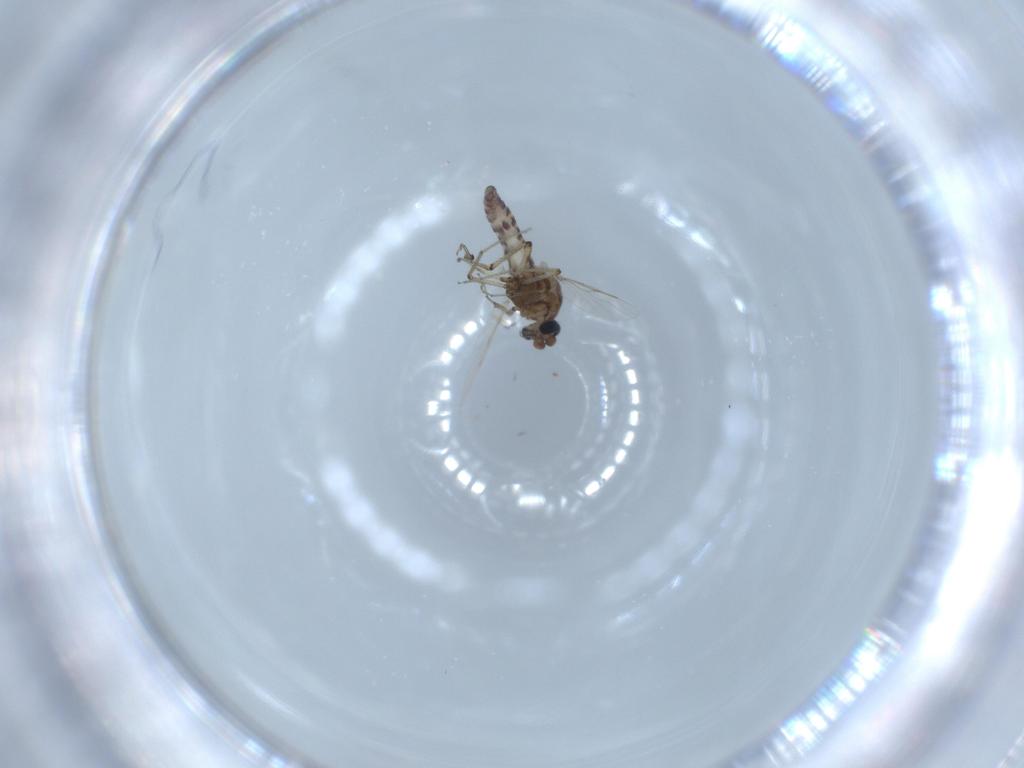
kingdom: Animalia
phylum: Arthropoda
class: Insecta
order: Diptera
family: Ceratopogonidae
